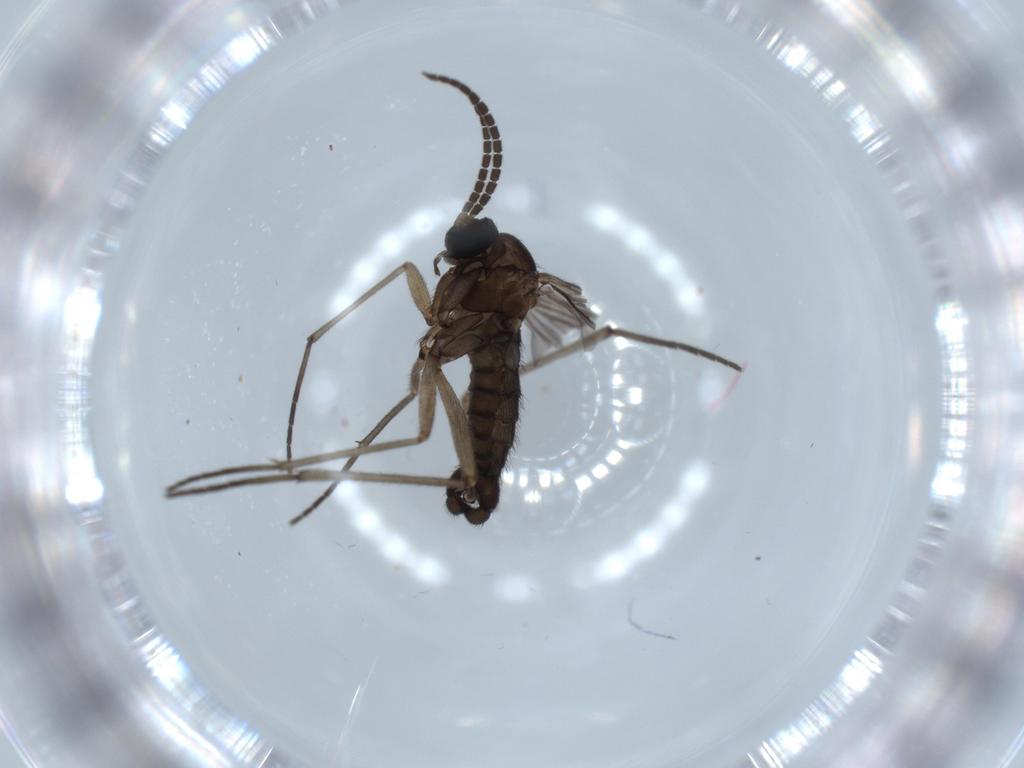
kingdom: Animalia
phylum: Arthropoda
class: Insecta
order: Diptera
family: Sciaridae
